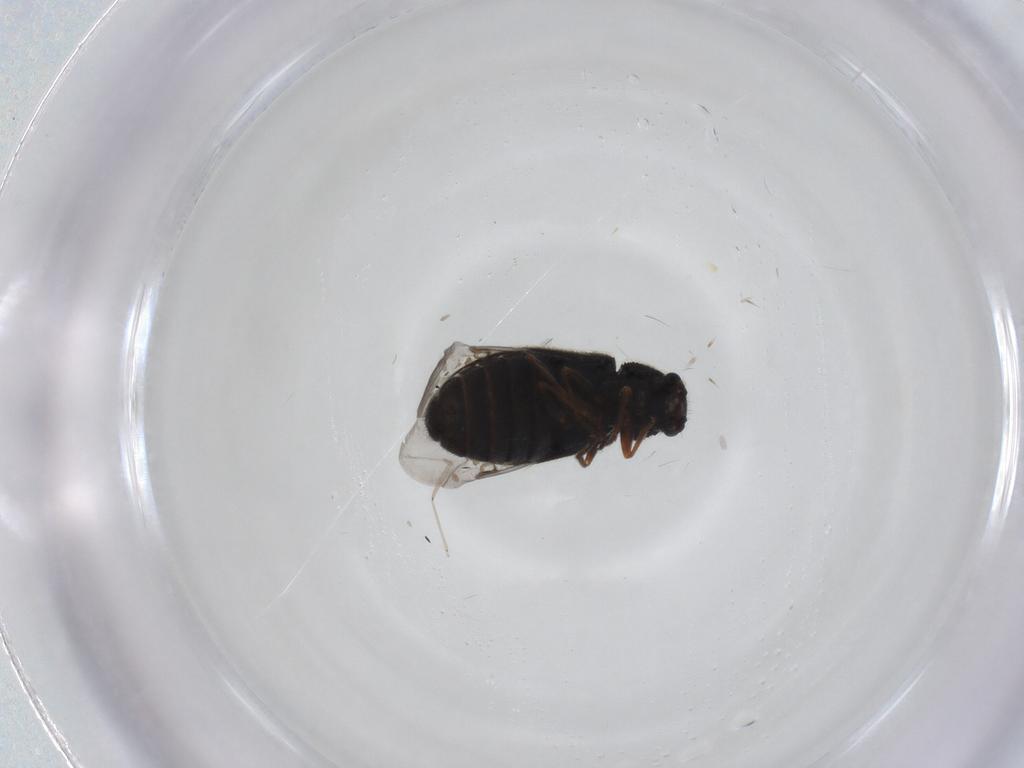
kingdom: Animalia
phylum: Arthropoda
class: Insecta
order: Coleoptera
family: Melyridae
